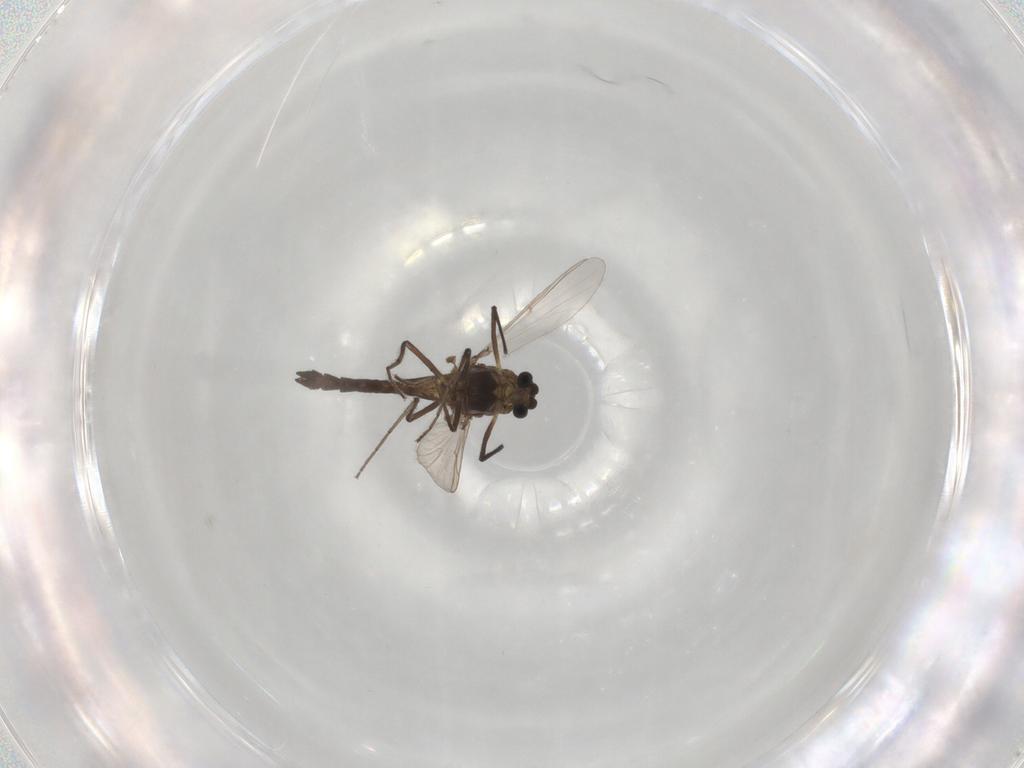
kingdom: Animalia
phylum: Arthropoda
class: Insecta
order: Diptera
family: Chironomidae
